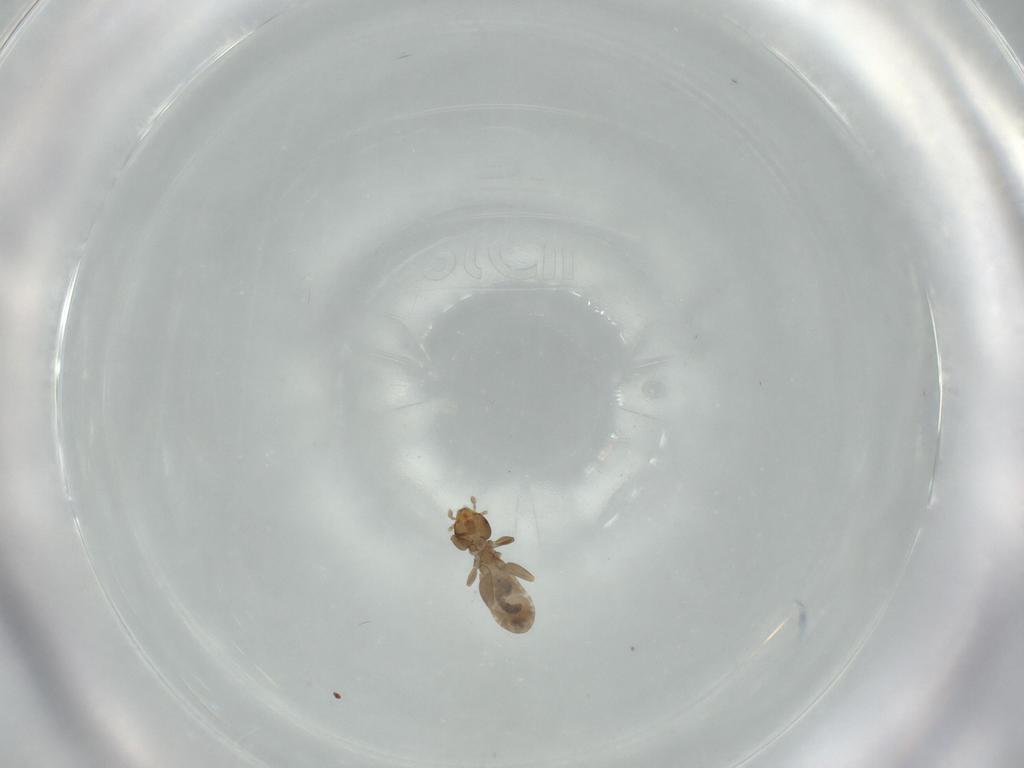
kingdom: Animalia
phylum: Arthropoda
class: Insecta
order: Psocodea
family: Liposcelididae
